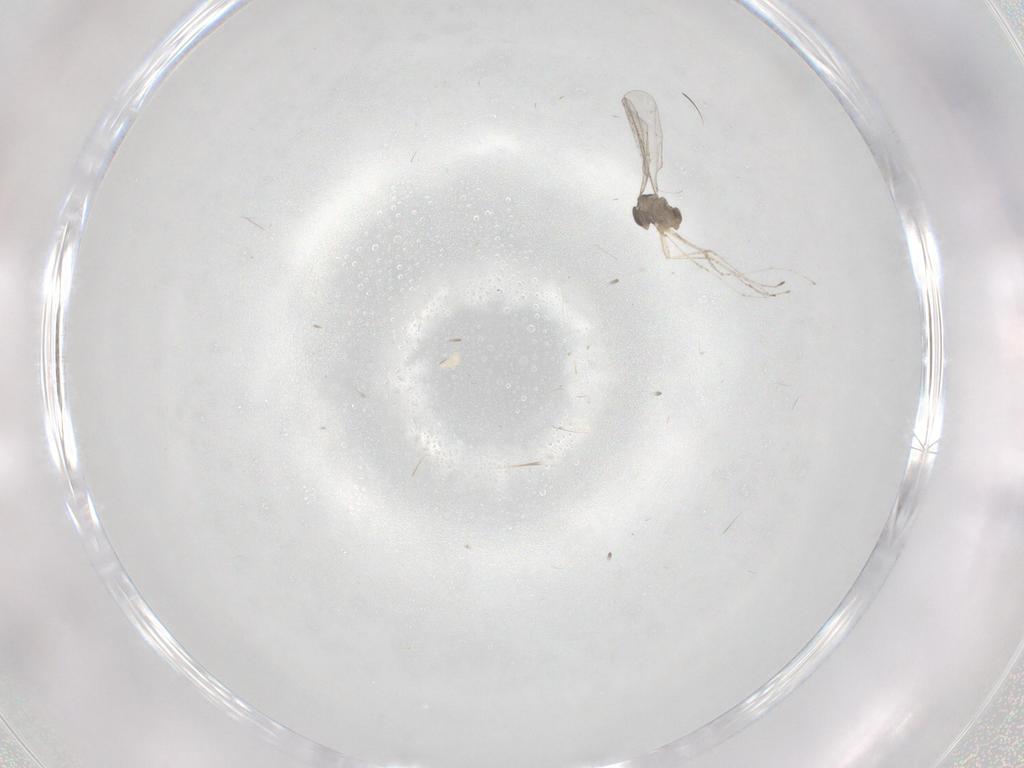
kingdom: Animalia
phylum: Arthropoda
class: Insecta
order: Diptera
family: Cecidomyiidae
